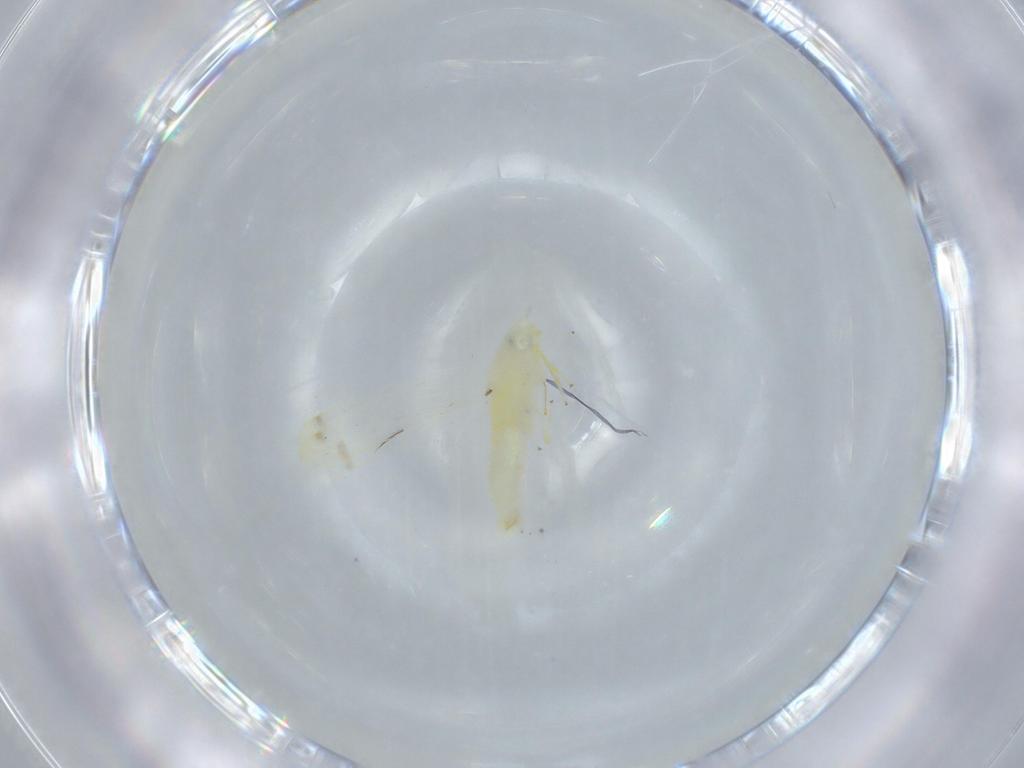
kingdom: Animalia
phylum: Arthropoda
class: Insecta
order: Hemiptera
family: Cicadellidae
